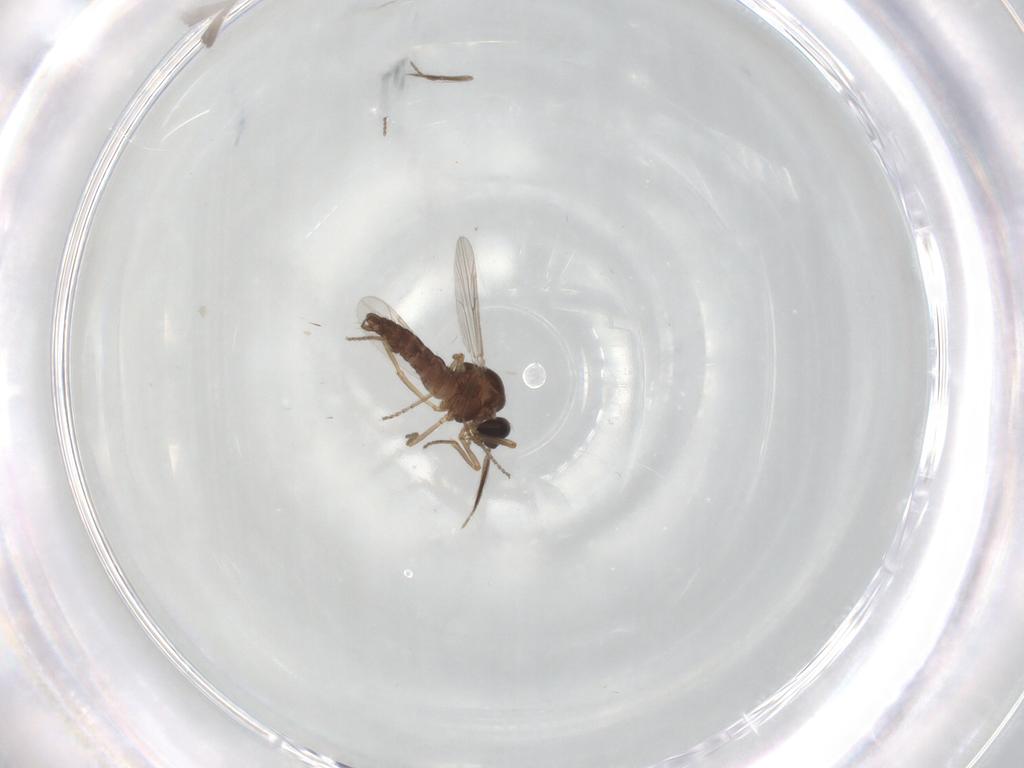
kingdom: Animalia
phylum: Arthropoda
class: Insecta
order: Diptera
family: Ceratopogonidae
